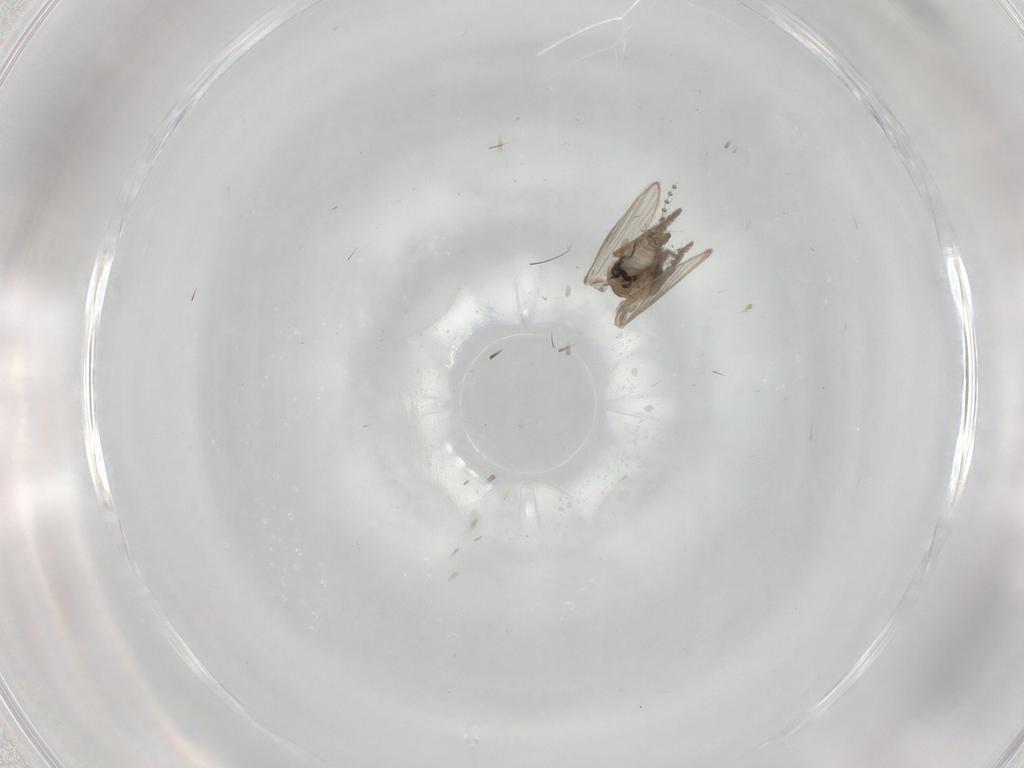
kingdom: Animalia
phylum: Arthropoda
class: Insecta
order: Diptera
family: Psychodidae
